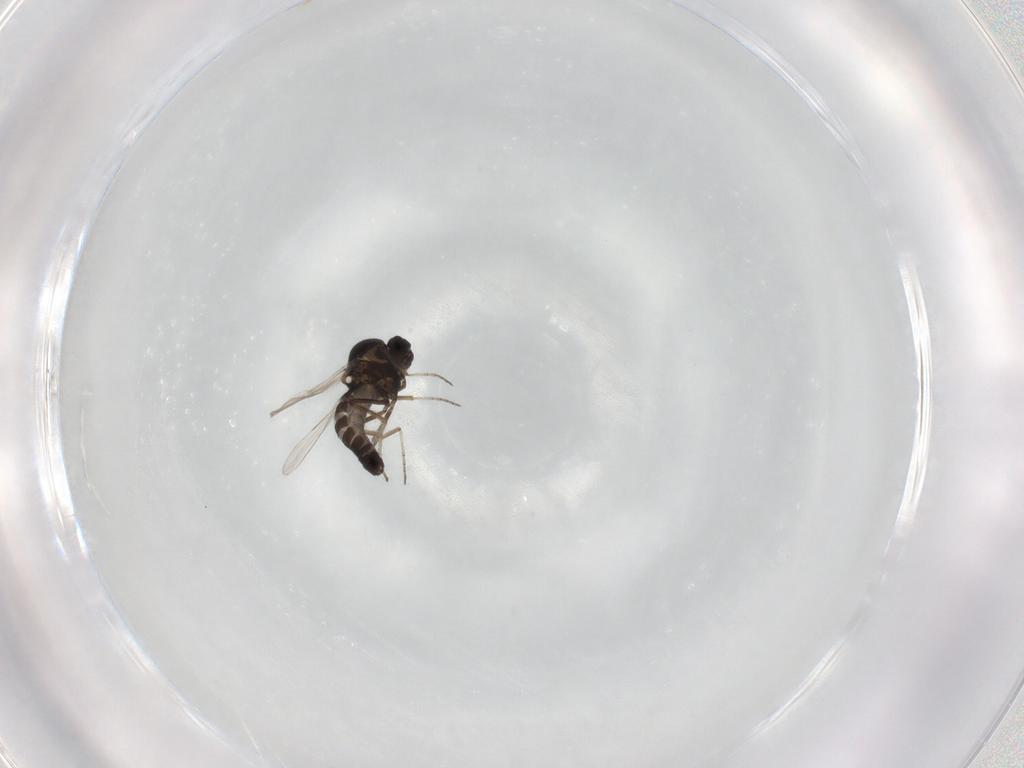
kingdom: Animalia
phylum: Arthropoda
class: Insecta
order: Diptera
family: Ceratopogonidae
